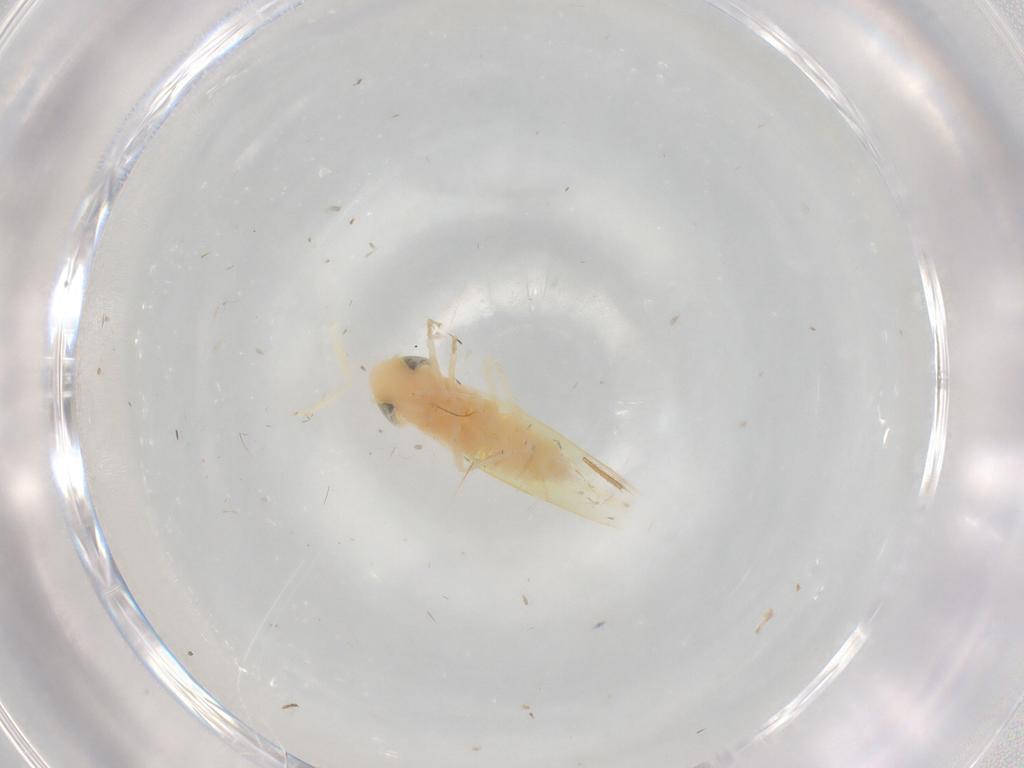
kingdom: Animalia
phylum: Arthropoda
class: Insecta
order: Hemiptera
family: Cicadellidae
